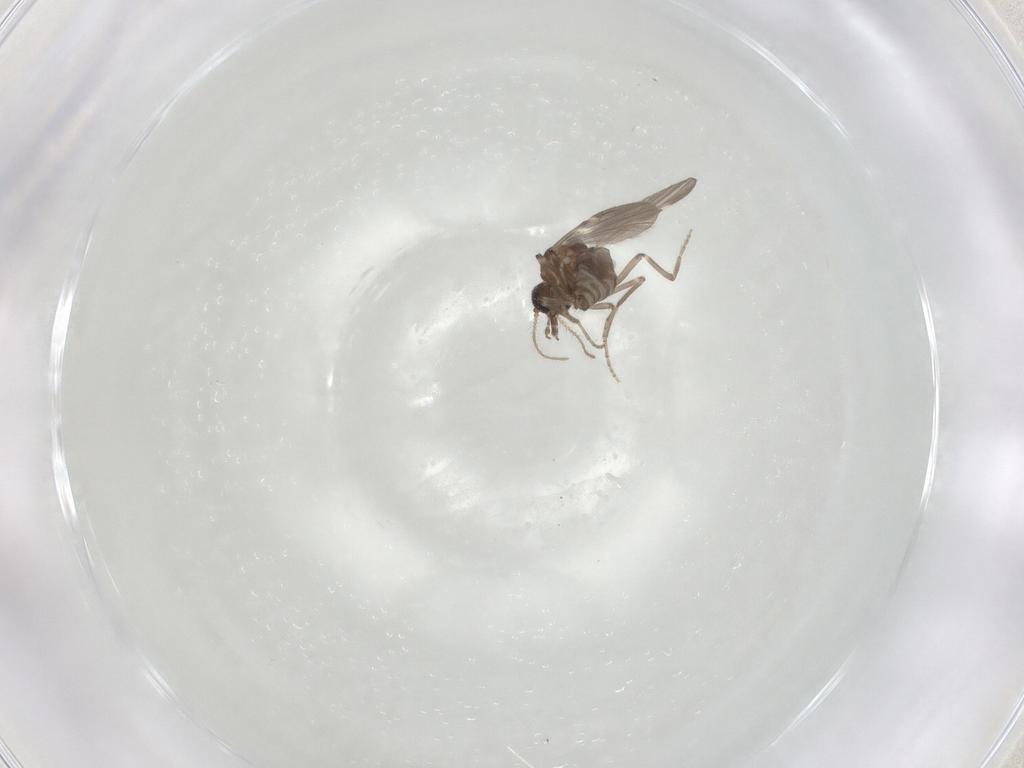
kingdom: Animalia
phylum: Arthropoda
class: Insecta
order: Diptera
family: Ceratopogonidae
